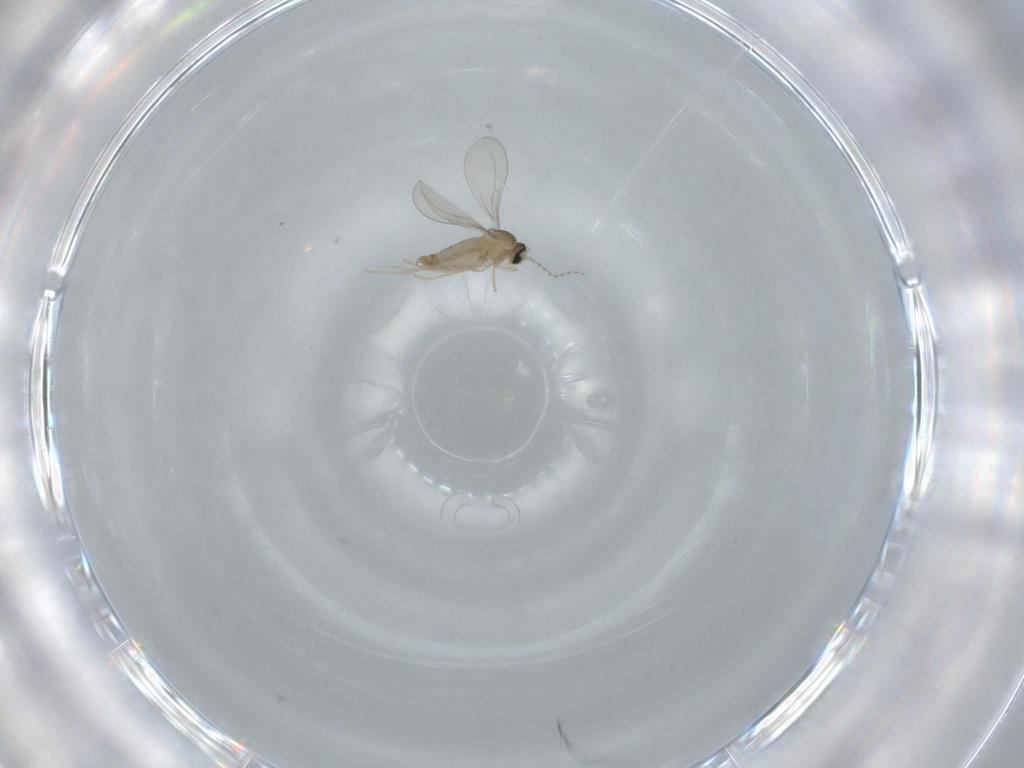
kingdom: Animalia
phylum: Arthropoda
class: Insecta
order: Diptera
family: Cecidomyiidae
